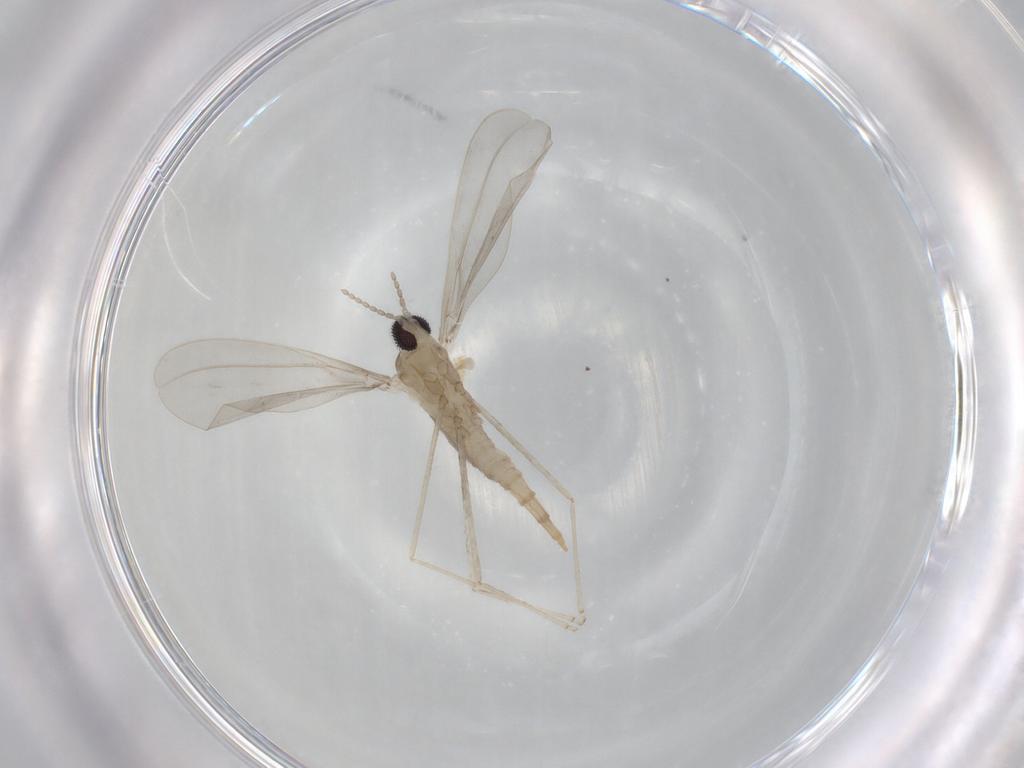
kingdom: Animalia
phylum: Arthropoda
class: Insecta
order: Diptera
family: Cecidomyiidae
